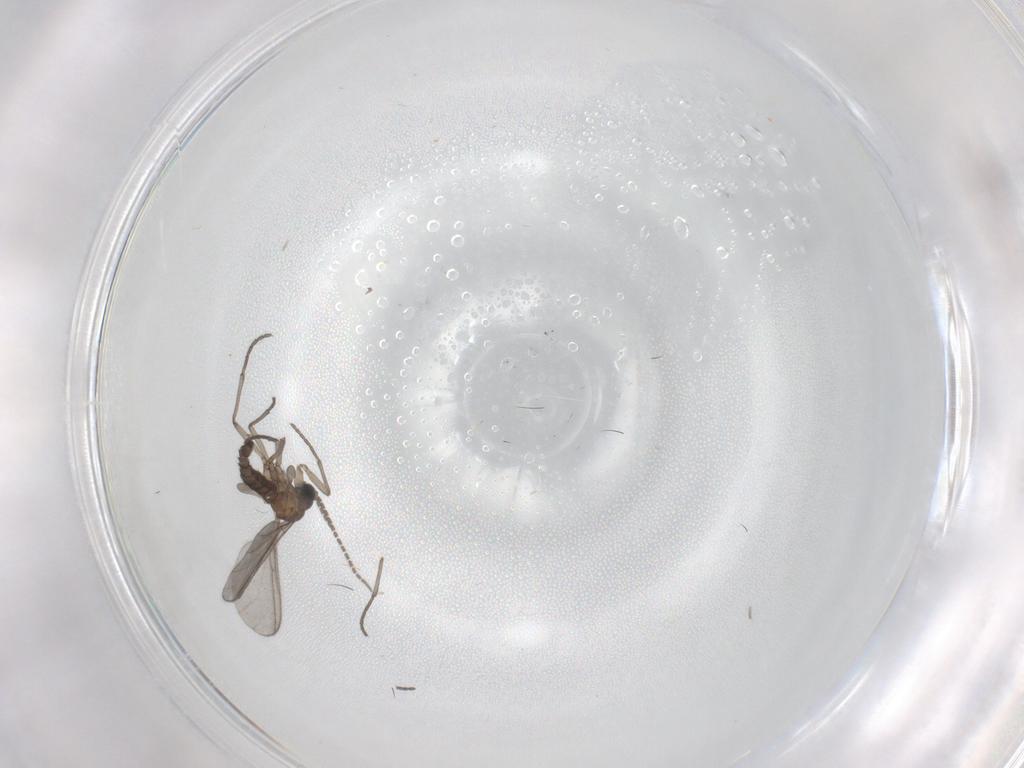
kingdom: Animalia
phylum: Arthropoda
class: Insecta
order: Diptera
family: Sciaridae
